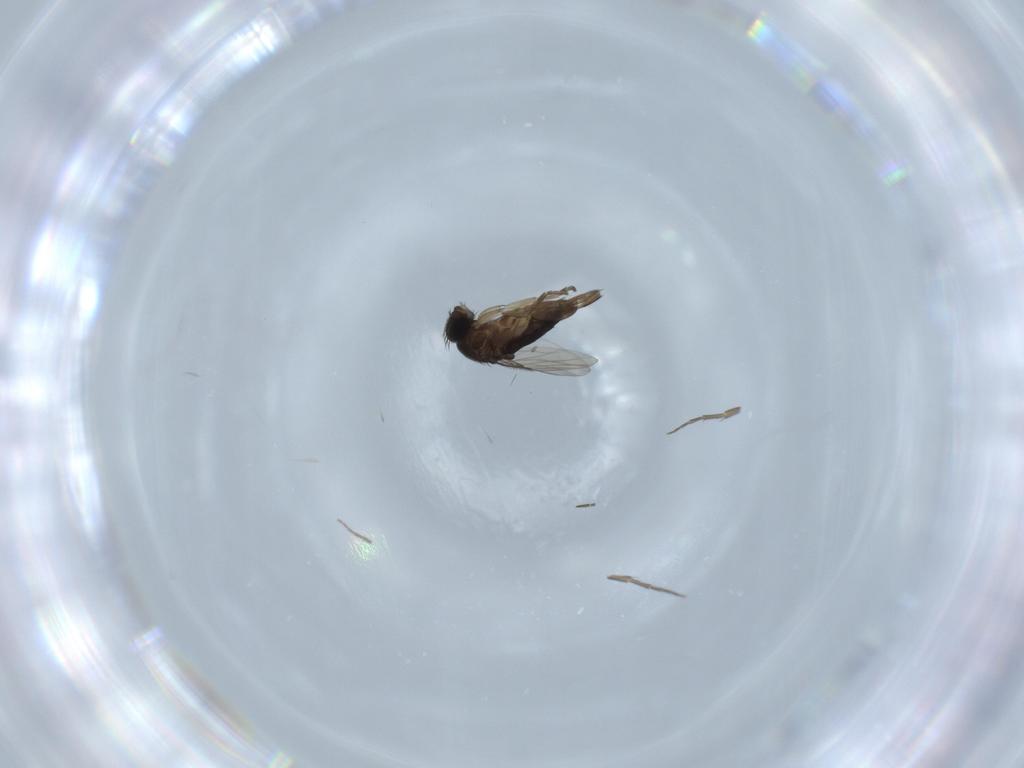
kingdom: Animalia
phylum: Arthropoda
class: Insecta
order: Diptera
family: Phoridae
